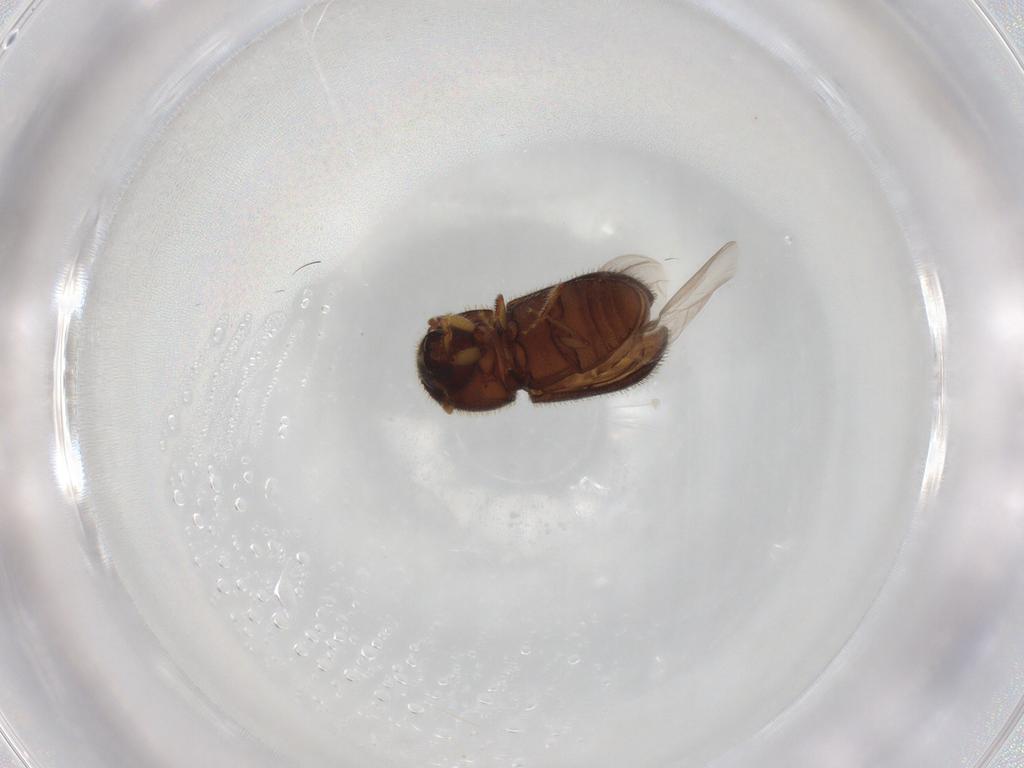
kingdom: Animalia
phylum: Arthropoda
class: Insecta
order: Coleoptera
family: Curculionidae
